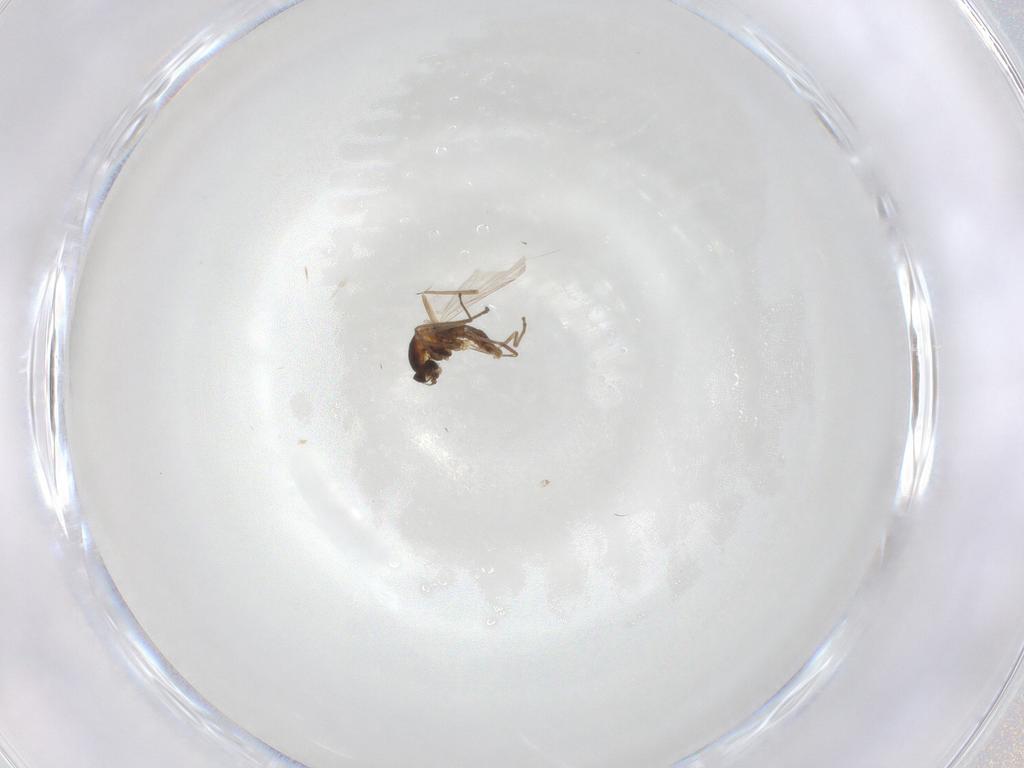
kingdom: Animalia
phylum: Arthropoda
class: Insecta
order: Diptera
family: Cecidomyiidae
